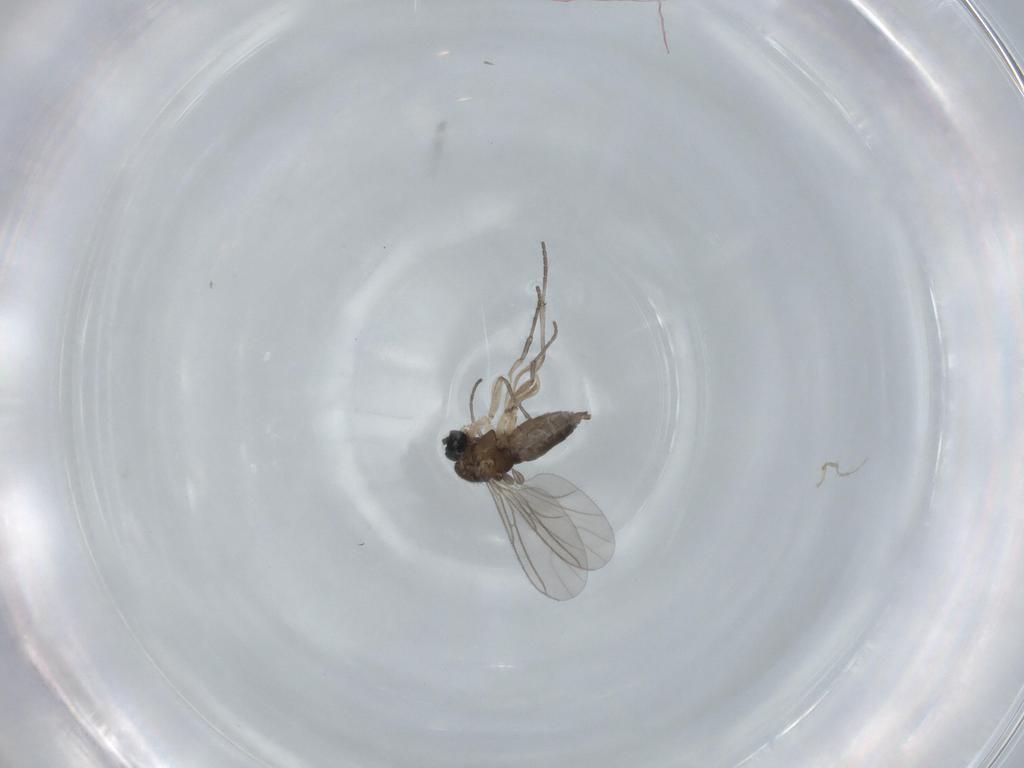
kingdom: Animalia
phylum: Arthropoda
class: Insecta
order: Diptera
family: Sciaridae
